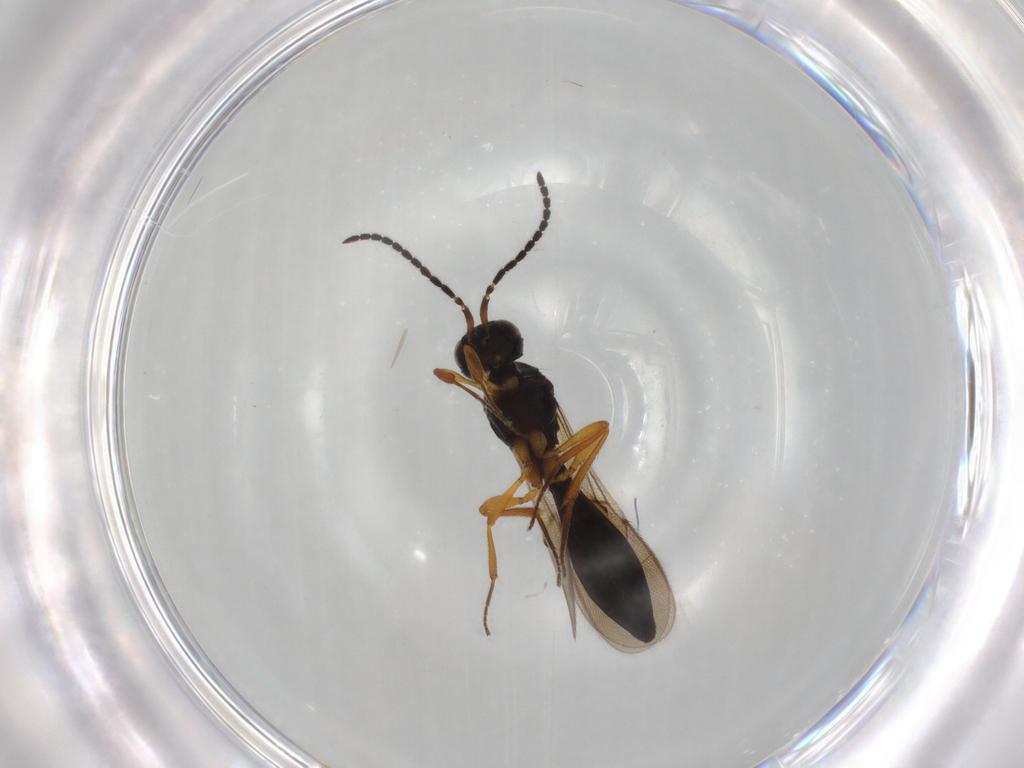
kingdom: Animalia
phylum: Arthropoda
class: Insecta
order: Hymenoptera
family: Scelionidae
